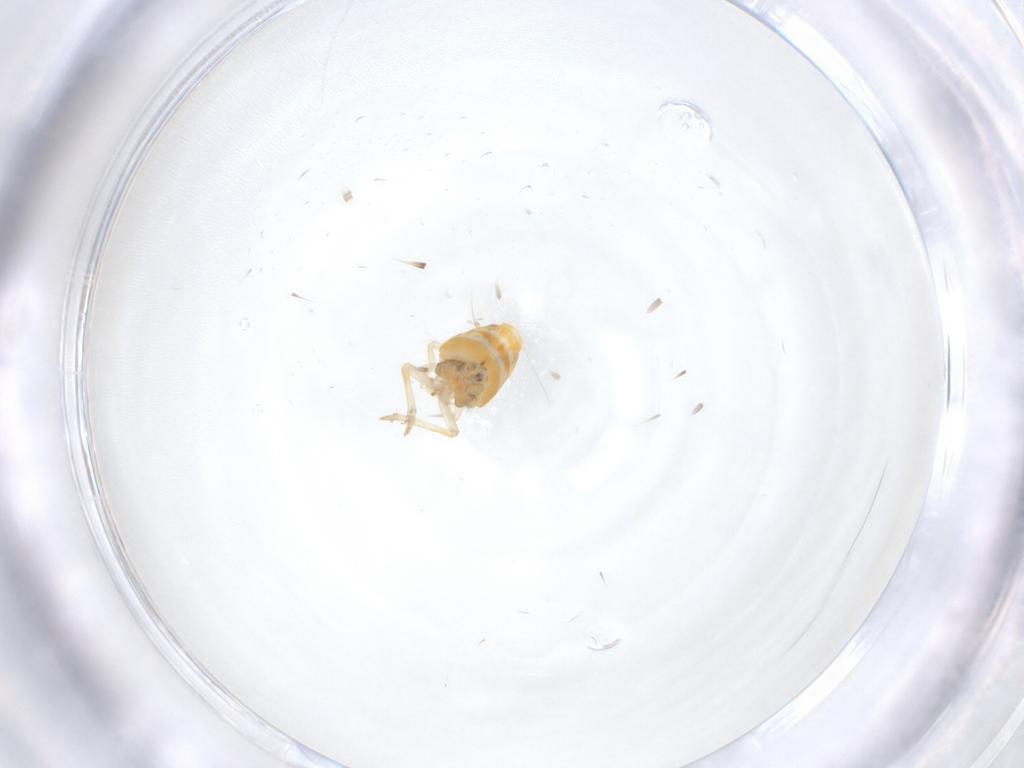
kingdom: Animalia
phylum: Arthropoda
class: Insecta
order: Hemiptera
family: Ricaniidae
